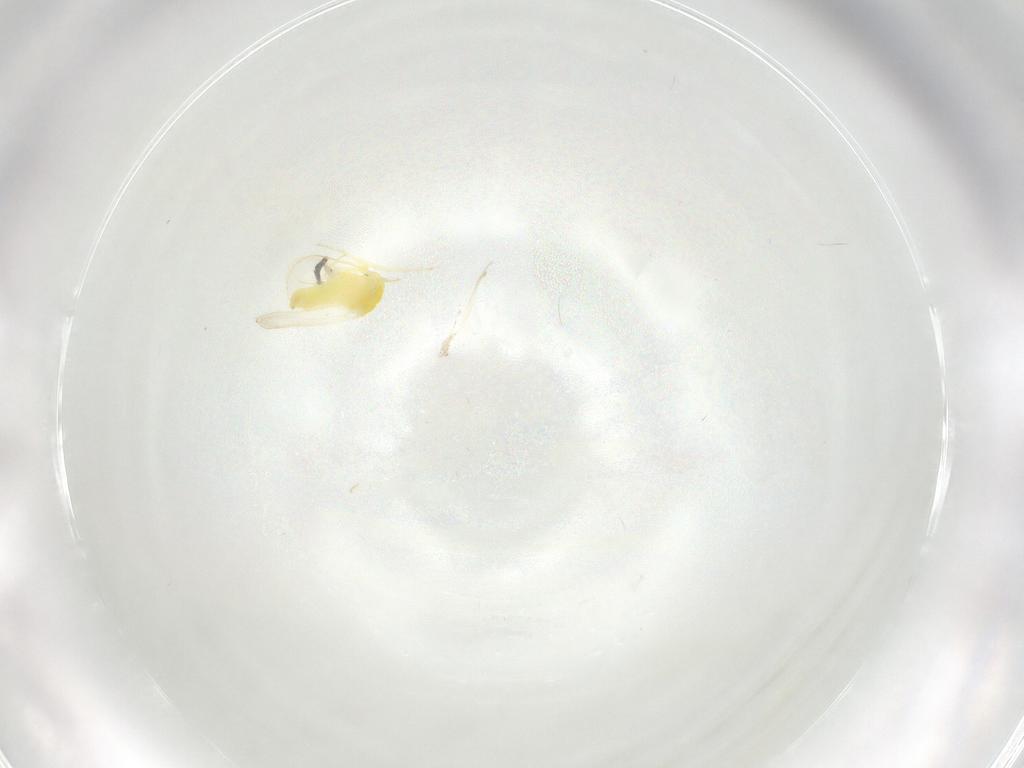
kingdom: Animalia
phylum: Arthropoda
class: Insecta
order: Hemiptera
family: Aleyrodidae
